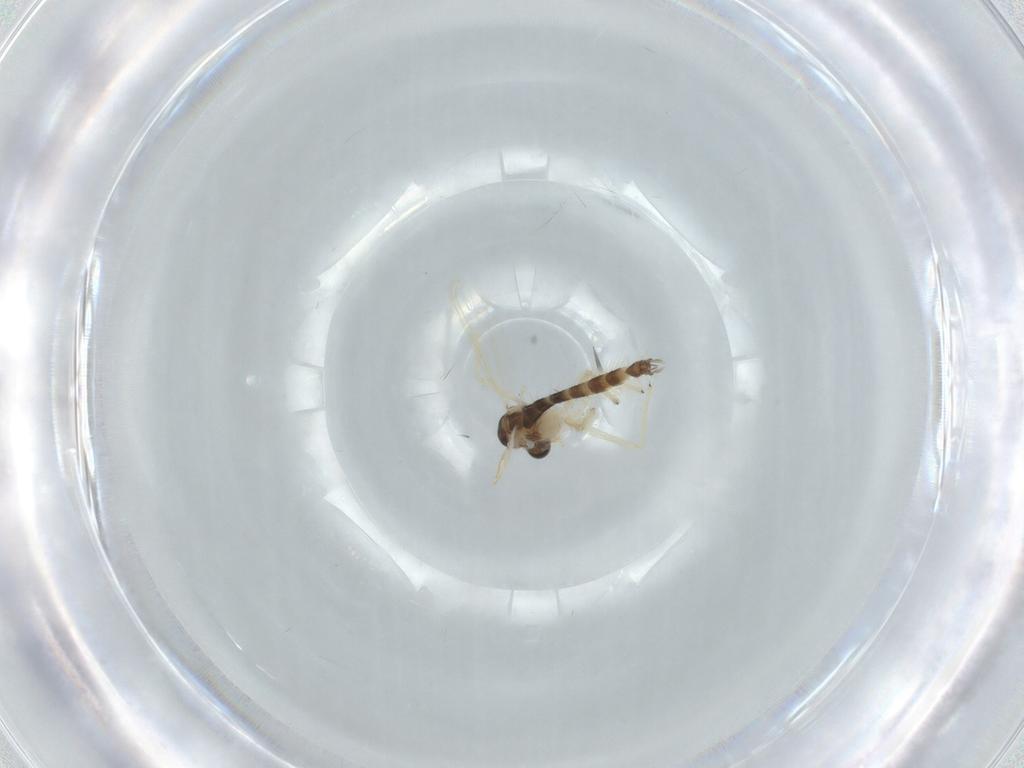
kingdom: Animalia
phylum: Arthropoda
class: Insecta
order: Diptera
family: Chironomidae
